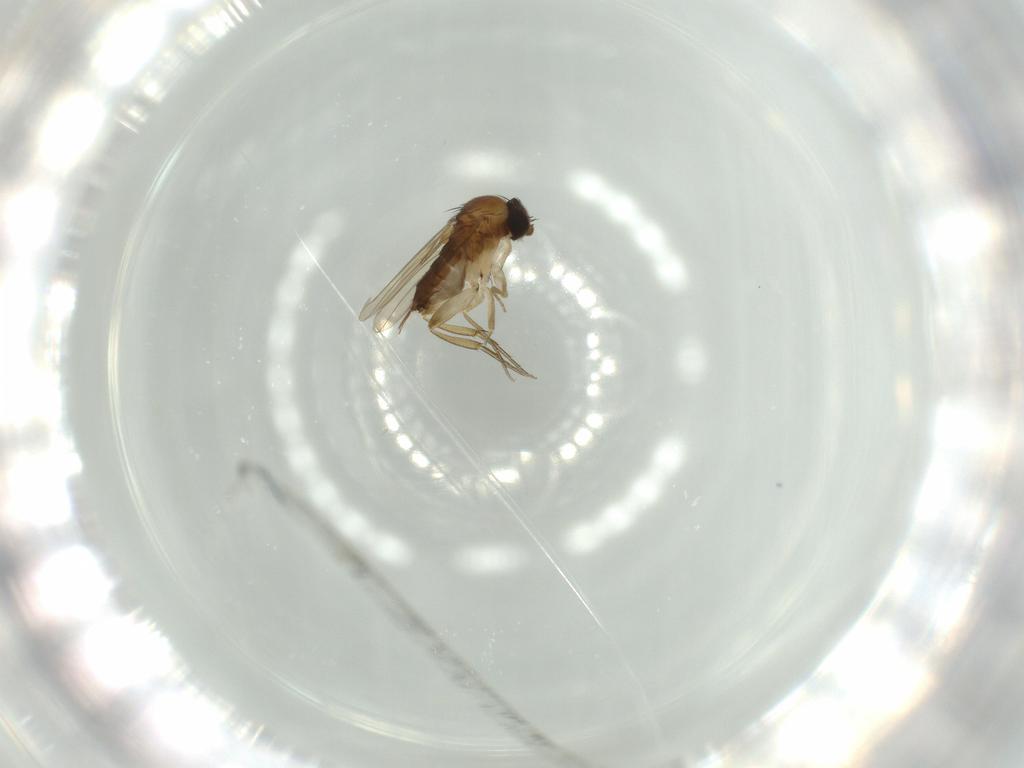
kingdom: Animalia
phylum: Arthropoda
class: Insecta
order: Diptera
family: Phoridae
